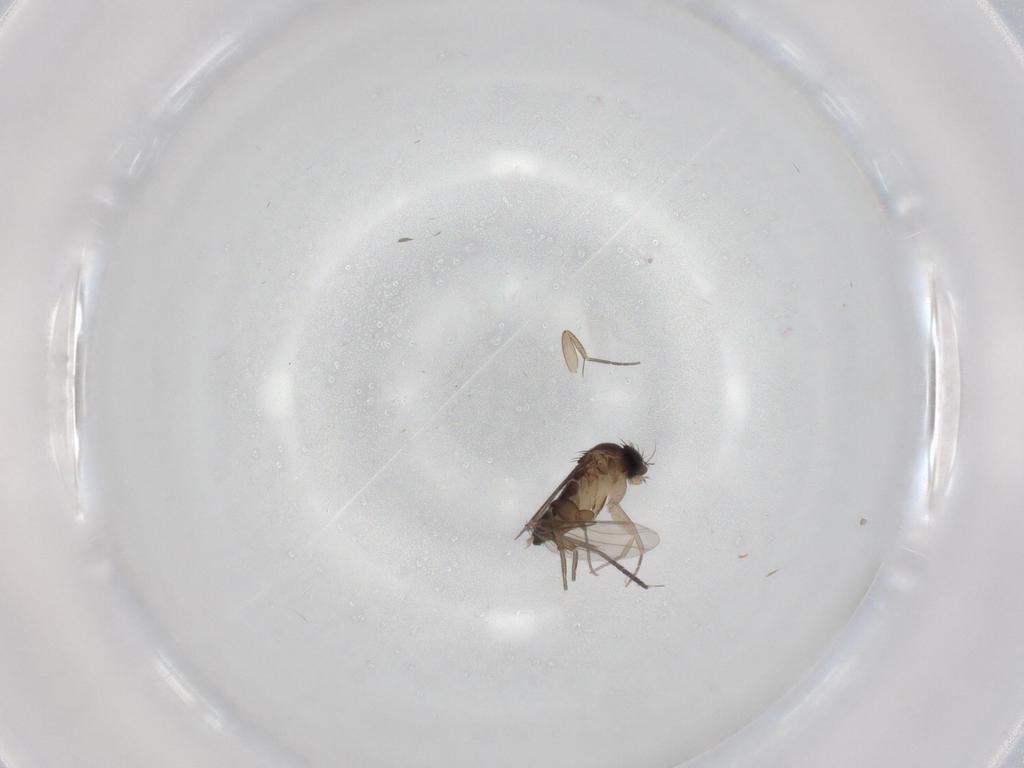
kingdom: Animalia
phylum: Arthropoda
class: Insecta
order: Diptera
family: Phoridae
